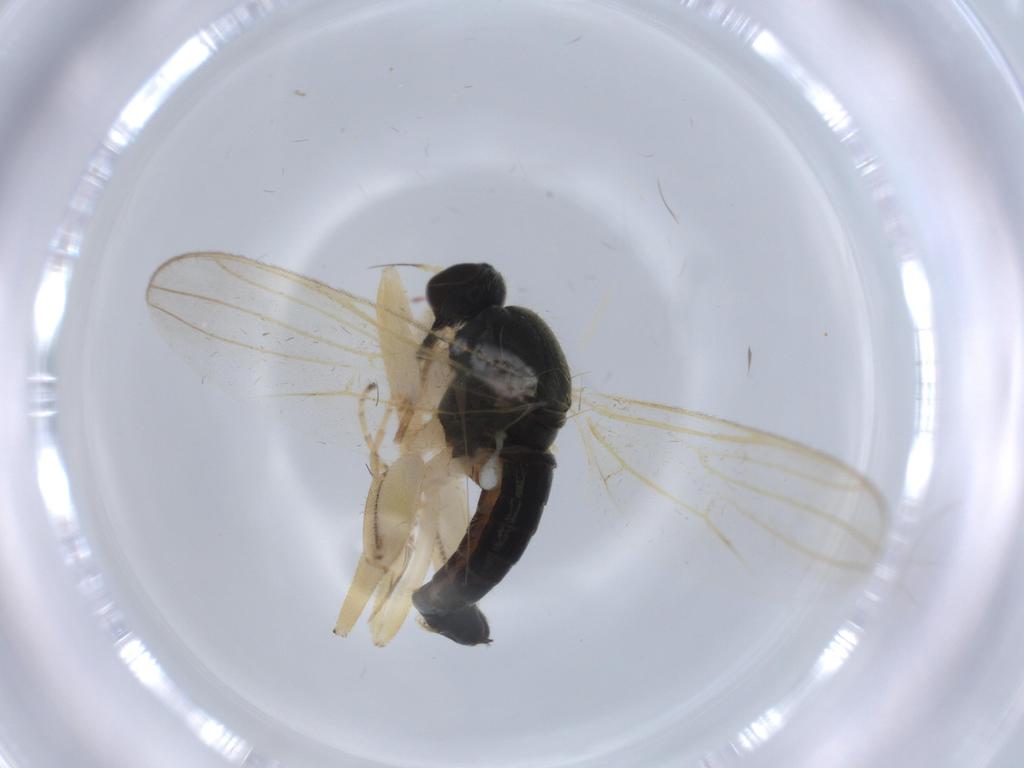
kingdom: Animalia
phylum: Arthropoda
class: Insecta
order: Diptera
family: Hybotidae
